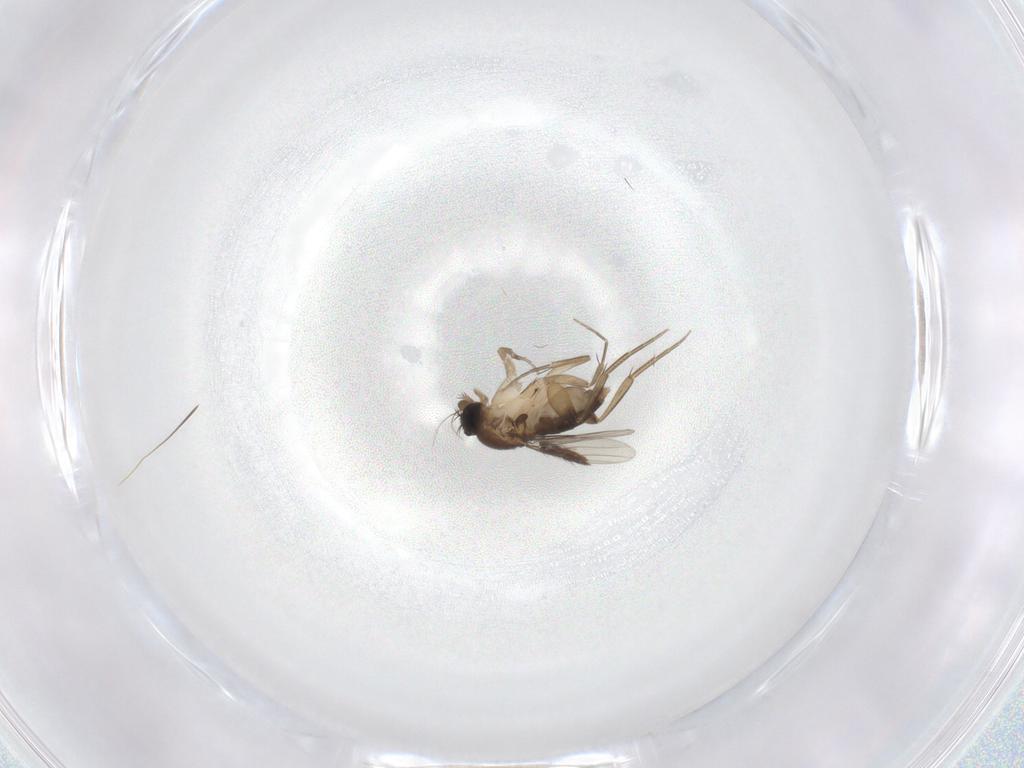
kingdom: Animalia
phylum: Arthropoda
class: Insecta
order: Diptera
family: Phoridae
